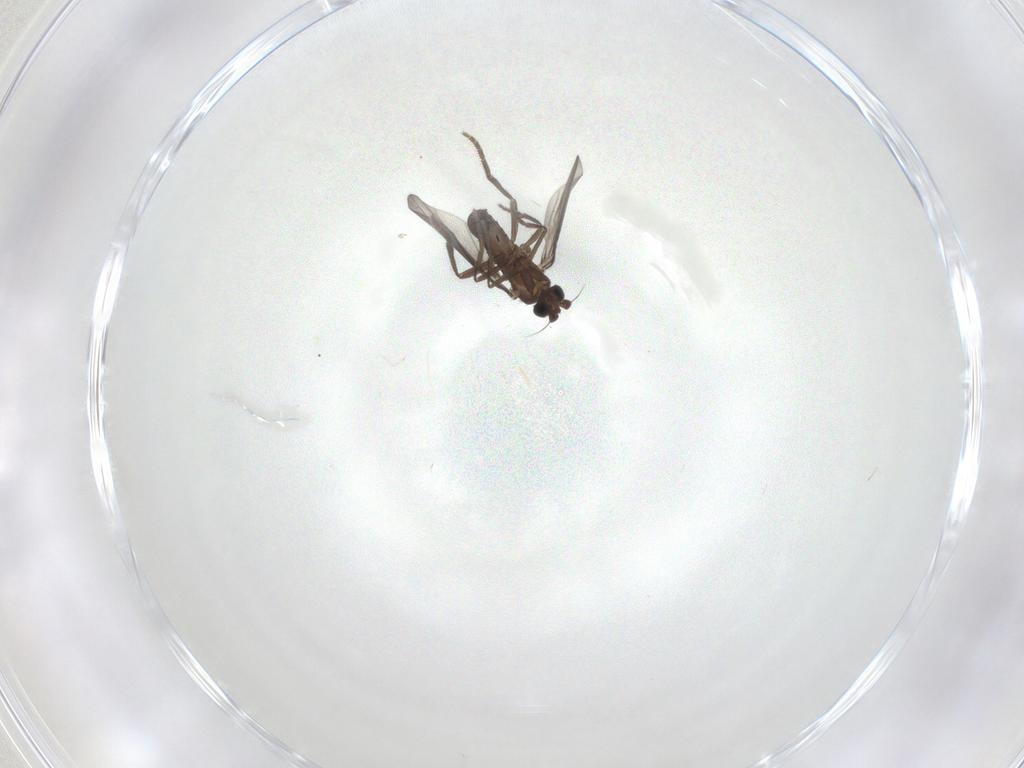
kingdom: Animalia
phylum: Arthropoda
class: Insecta
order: Diptera
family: Phoridae
